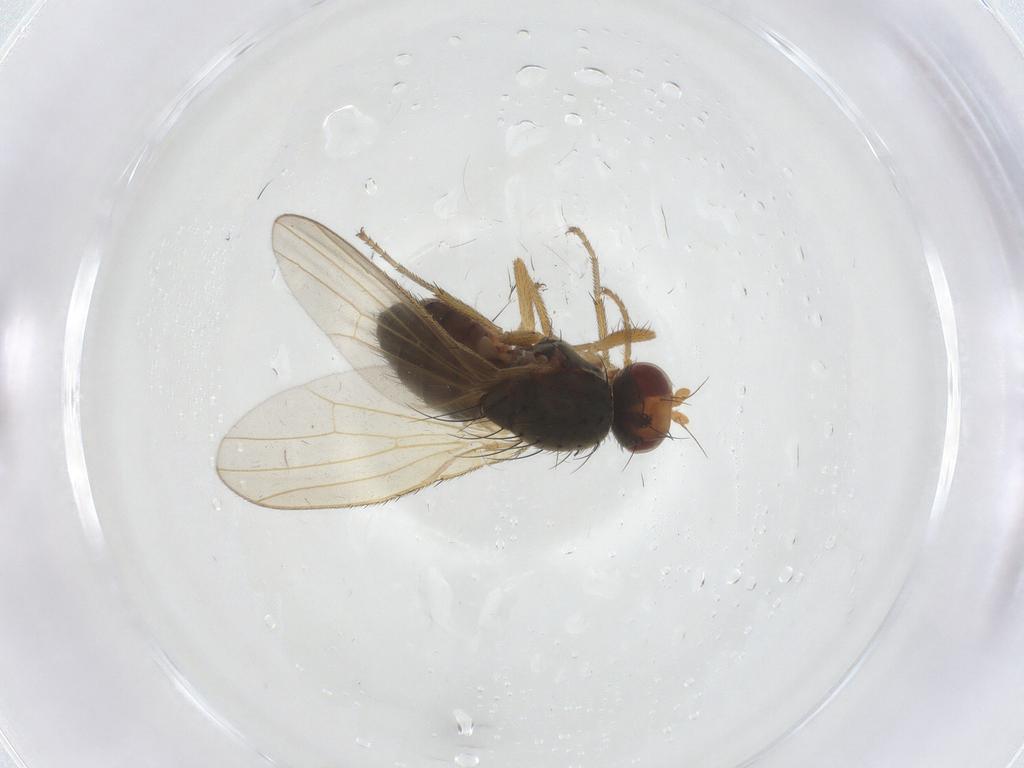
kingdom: Animalia
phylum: Arthropoda
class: Insecta
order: Diptera
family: Heleomyzidae
